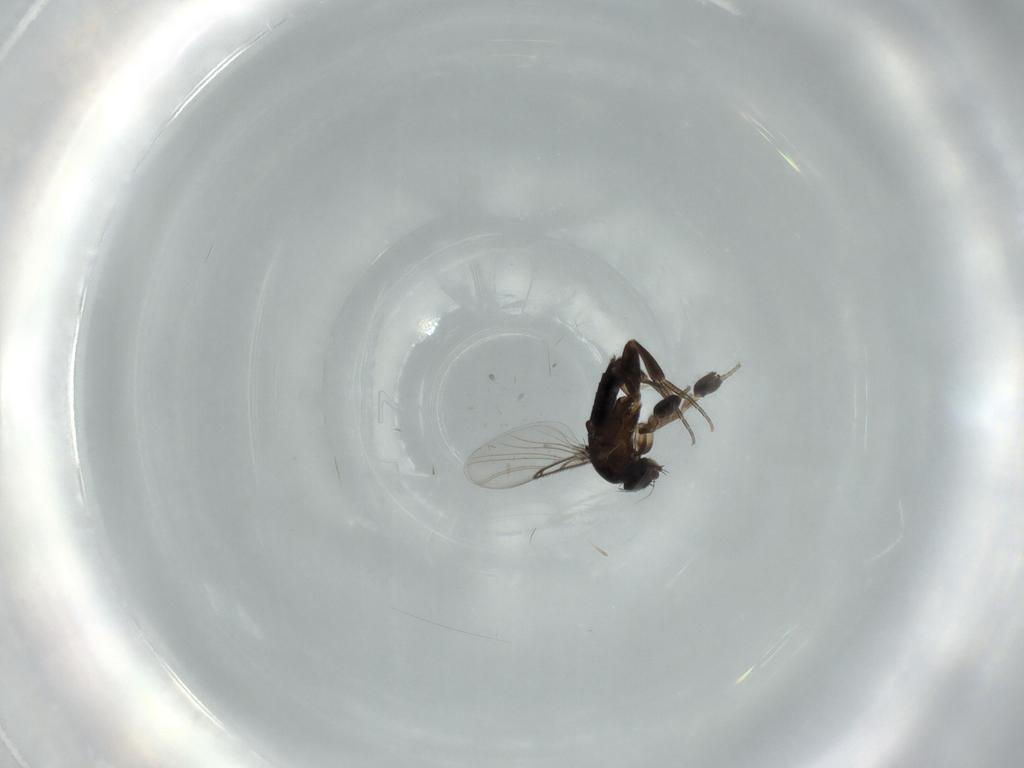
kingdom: Animalia
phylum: Arthropoda
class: Insecta
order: Diptera
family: Phoridae
